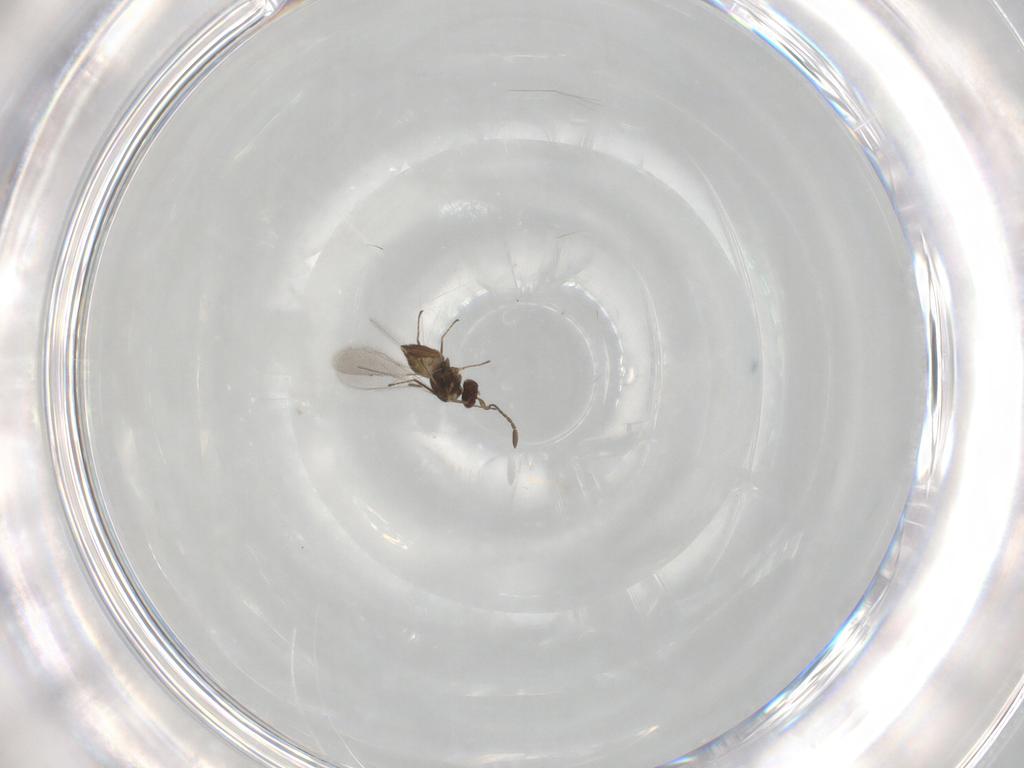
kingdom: Animalia
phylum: Arthropoda
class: Insecta
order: Hymenoptera
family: Mymaridae
